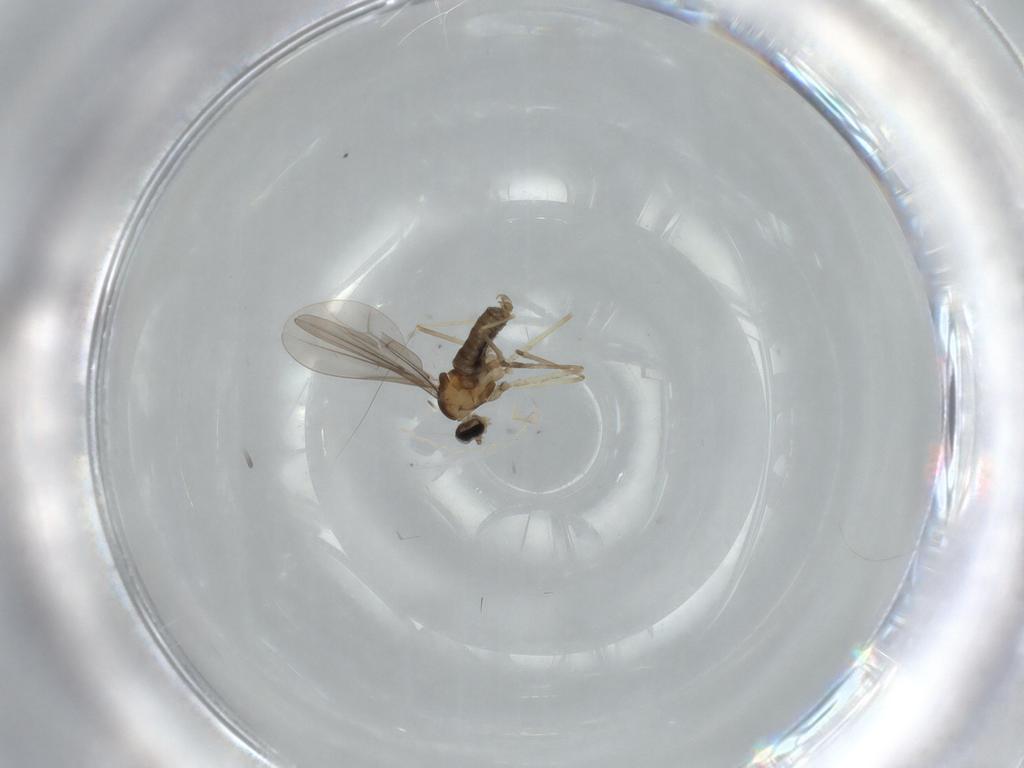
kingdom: Animalia
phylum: Arthropoda
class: Insecta
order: Diptera
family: Cecidomyiidae
